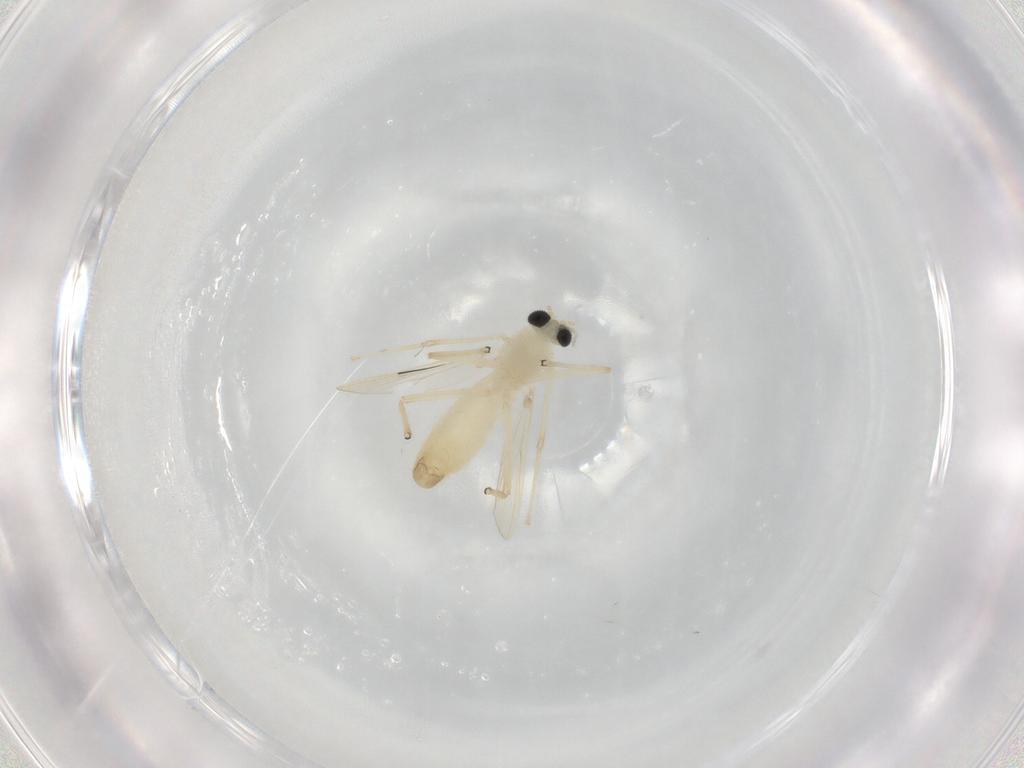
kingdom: Animalia
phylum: Arthropoda
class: Insecta
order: Diptera
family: Chironomidae
